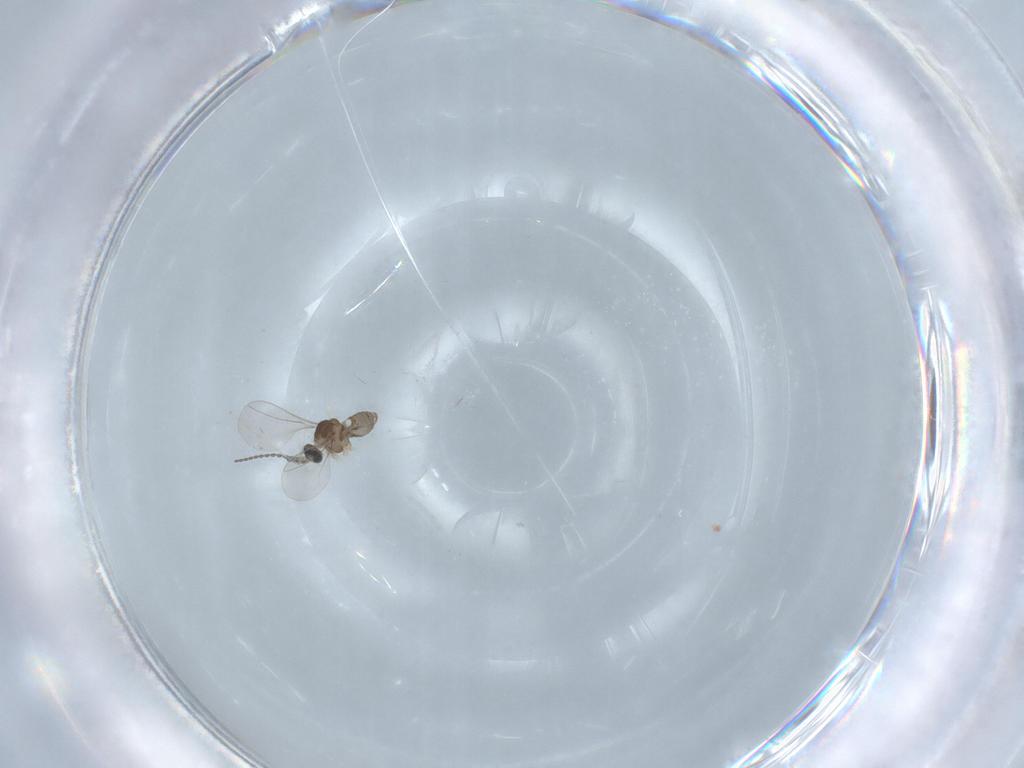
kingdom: Animalia
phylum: Arthropoda
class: Insecta
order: Diptera
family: Cecidomyiidae
